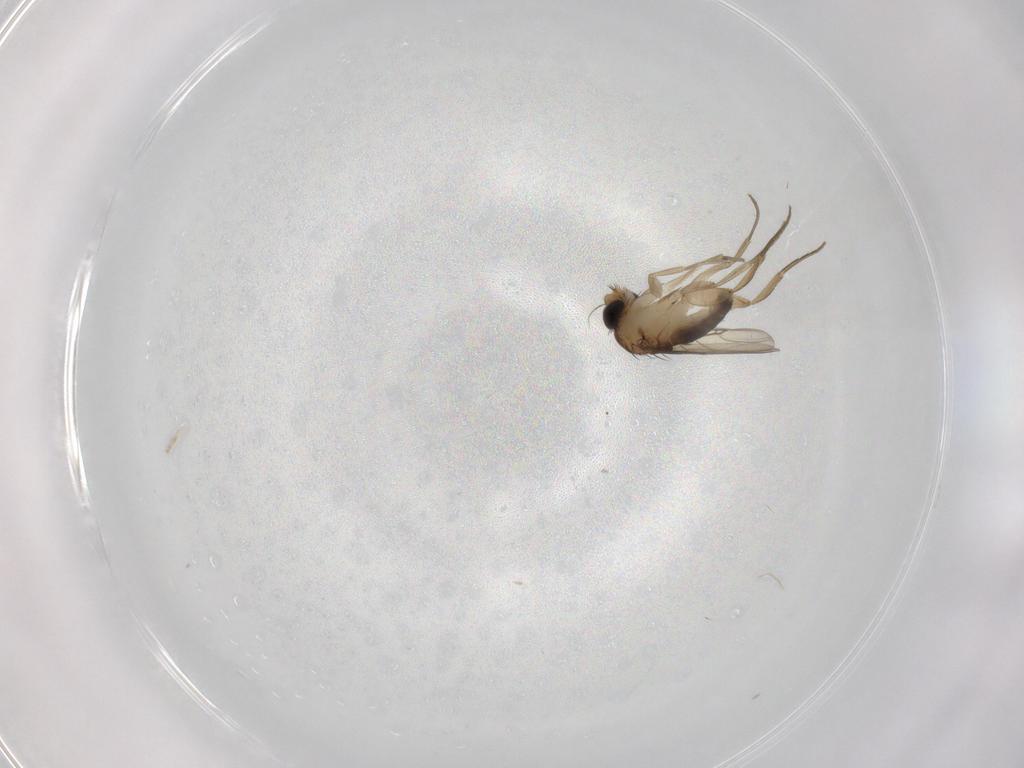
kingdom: Animalia
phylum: Arthropoda
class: Insecta
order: Diptera
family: Phoridae
